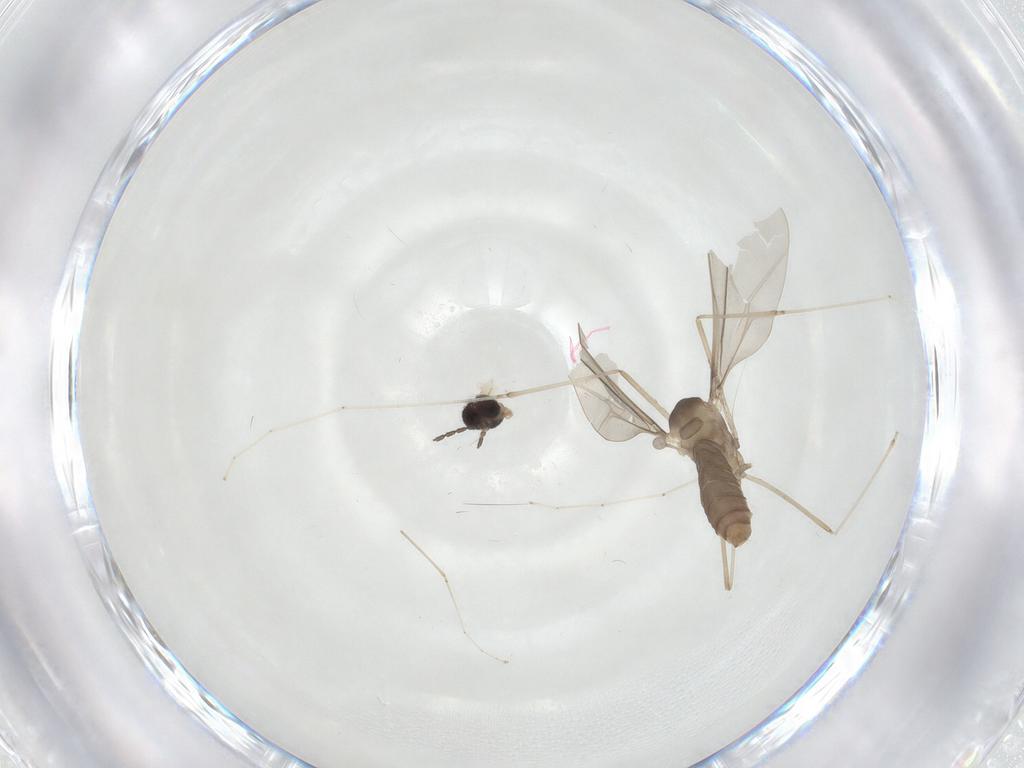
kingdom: Animalia
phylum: Arthropoda
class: Insecta
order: Diptera
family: Cecidomyiidae
